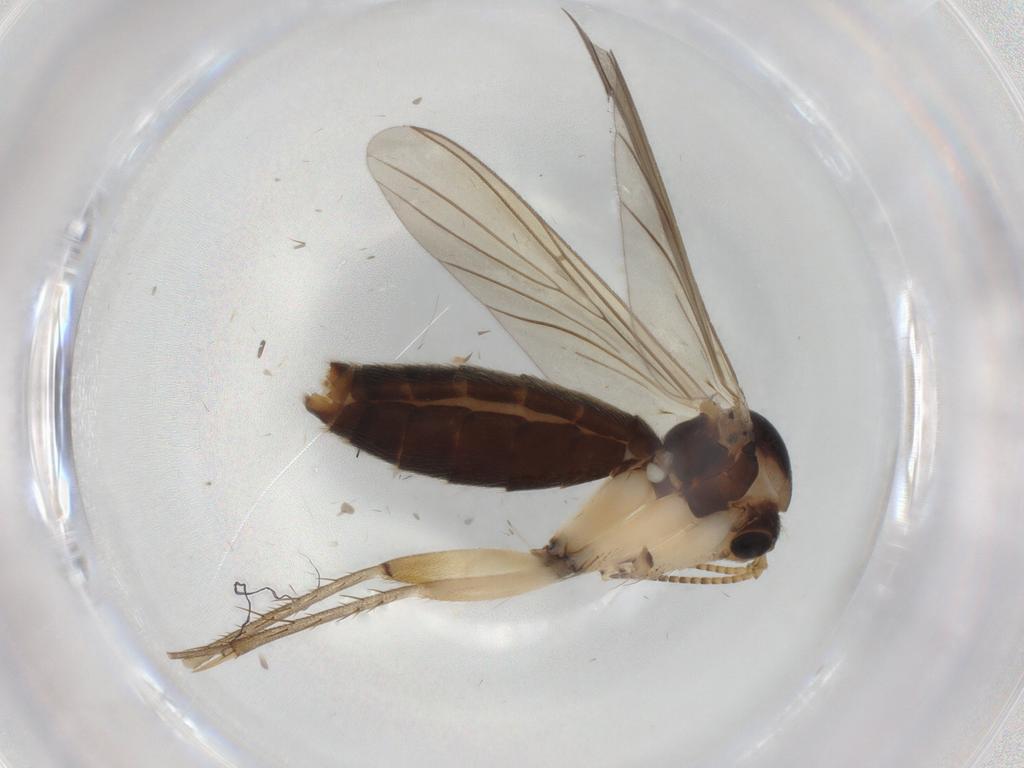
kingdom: Animalia
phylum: Arthropoda
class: Insecta
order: Diptera
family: Mycetophilidae
